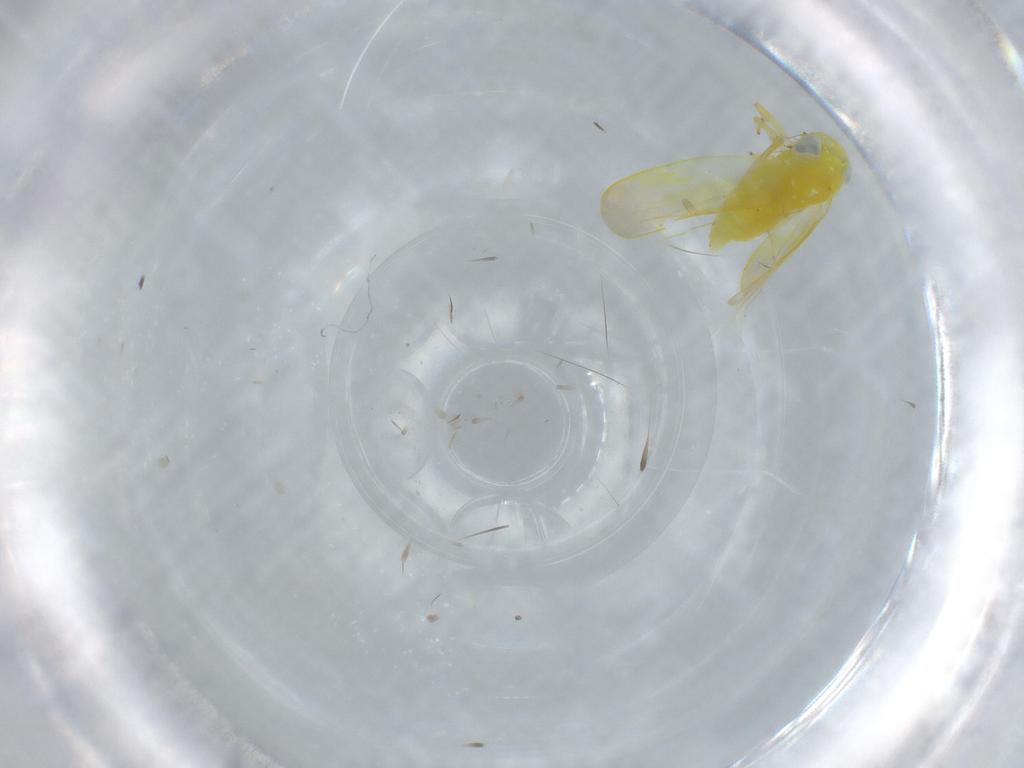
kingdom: Animalia
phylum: Arthropoda
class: Insecta
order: Hemiptera
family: Cicadellidae
